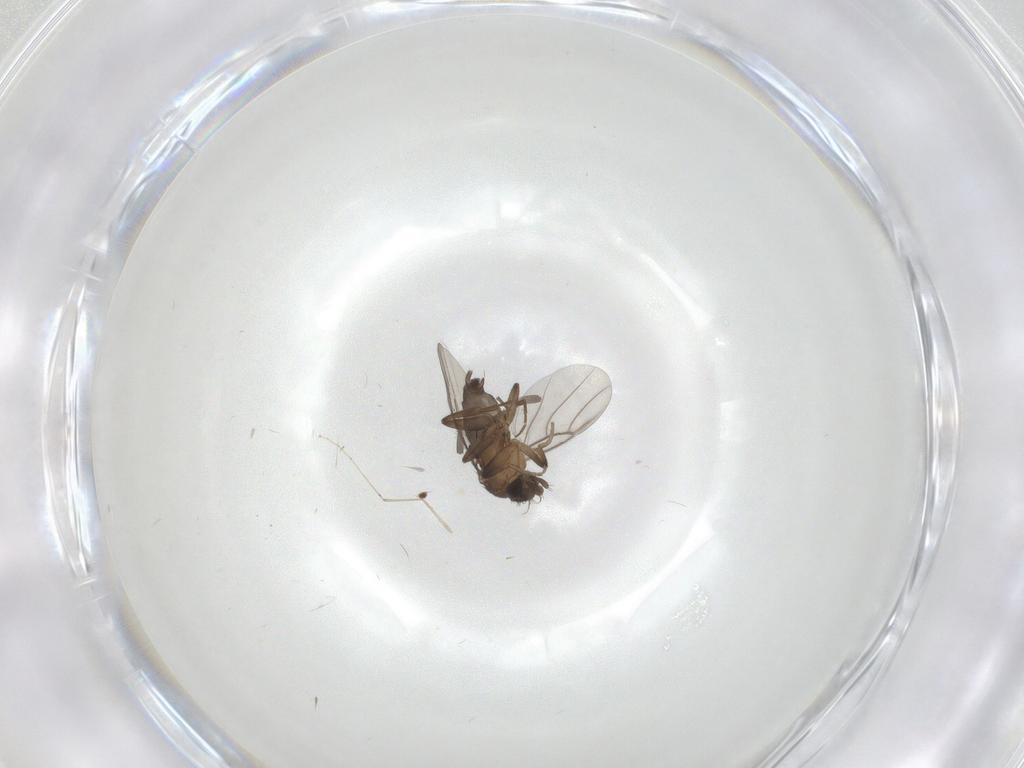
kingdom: Animalia
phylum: Arthropoda
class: Insecta
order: Diptera
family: Phoridae
